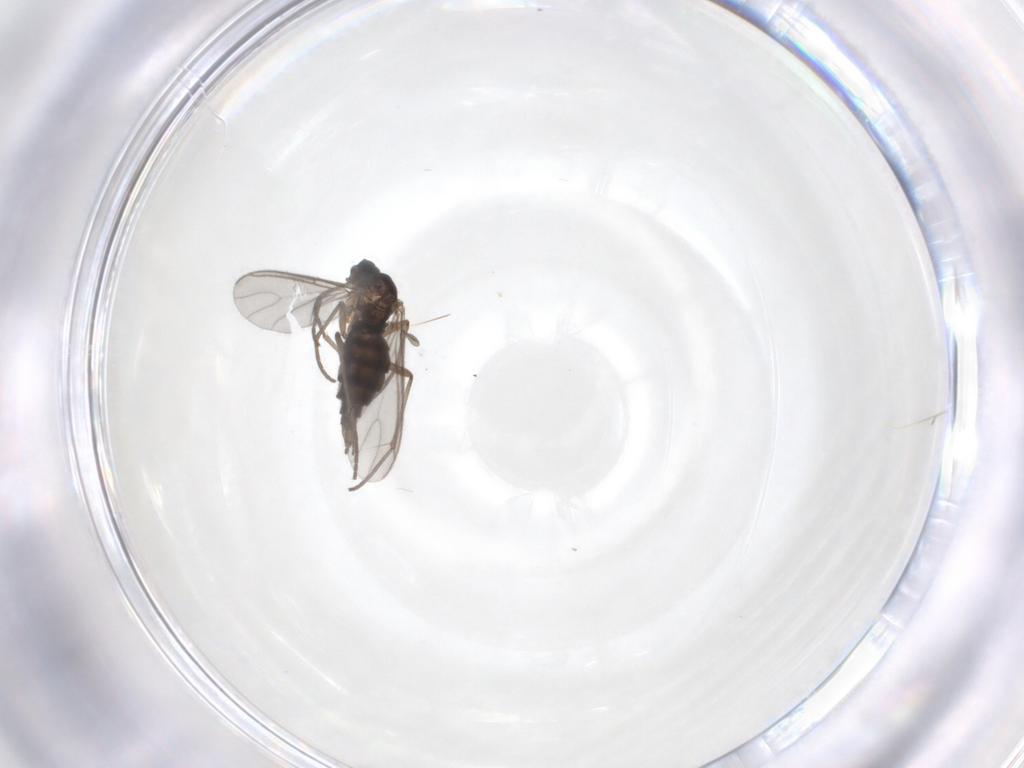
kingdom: Animalia
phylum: Arthropoda
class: Insecta
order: Diptera
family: Sciaridae
